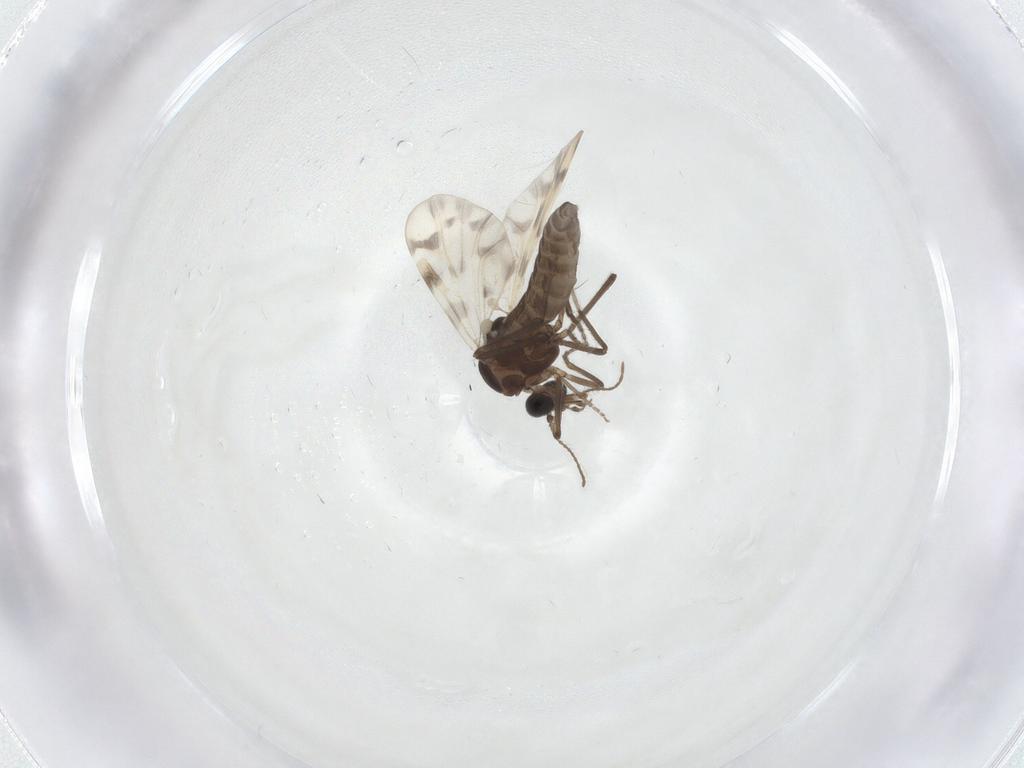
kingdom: Animalia
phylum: Arthropoda
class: Insecta
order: Diptera
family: Ceratopogonidae
